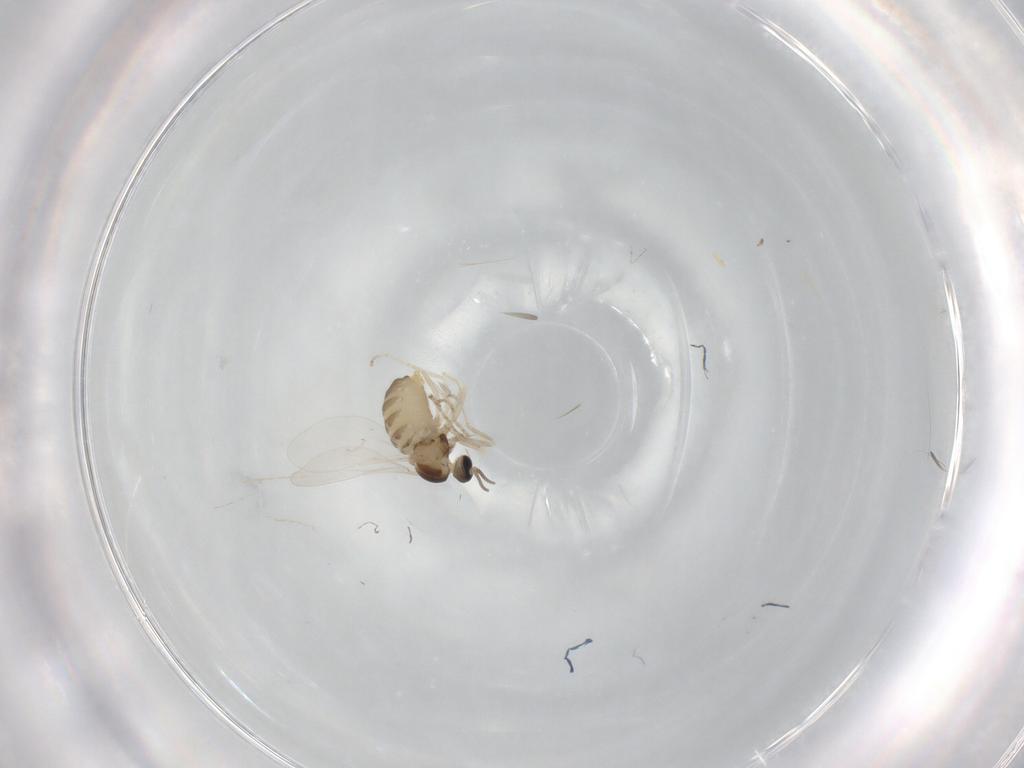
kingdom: Animalia
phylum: Arthropoda
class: Insecta
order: Diptera
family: Cecidomyiidae
